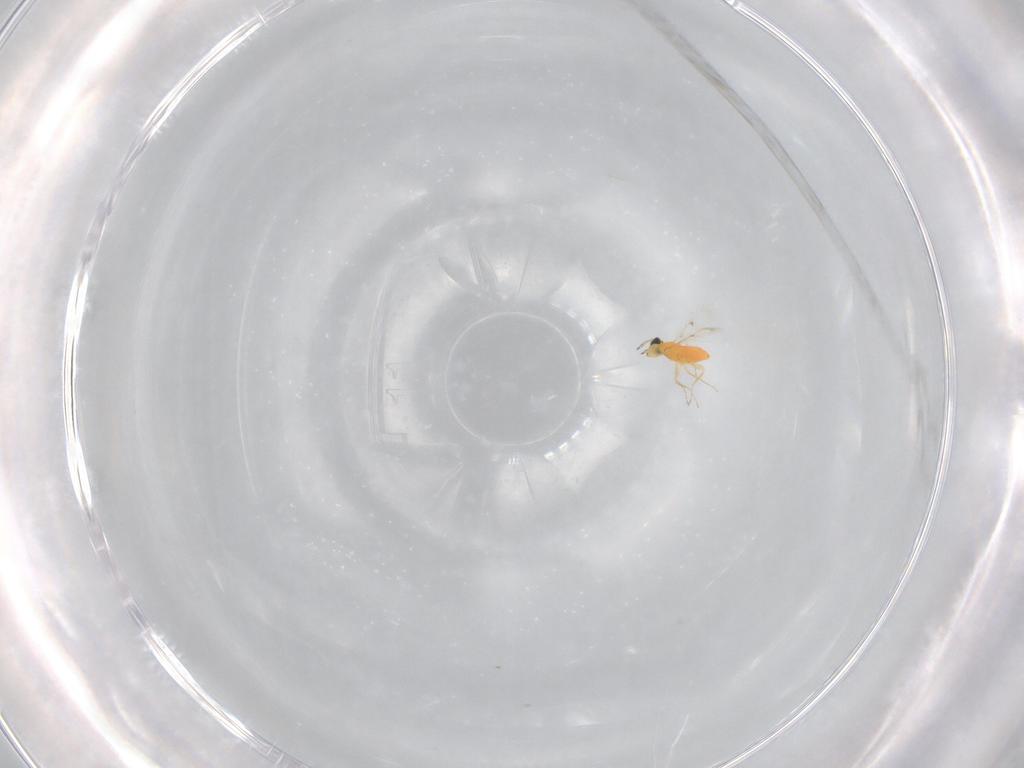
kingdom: Animalia
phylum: Arthropoda
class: Insecta
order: Hymenoptera
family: Trichogrammatidae
